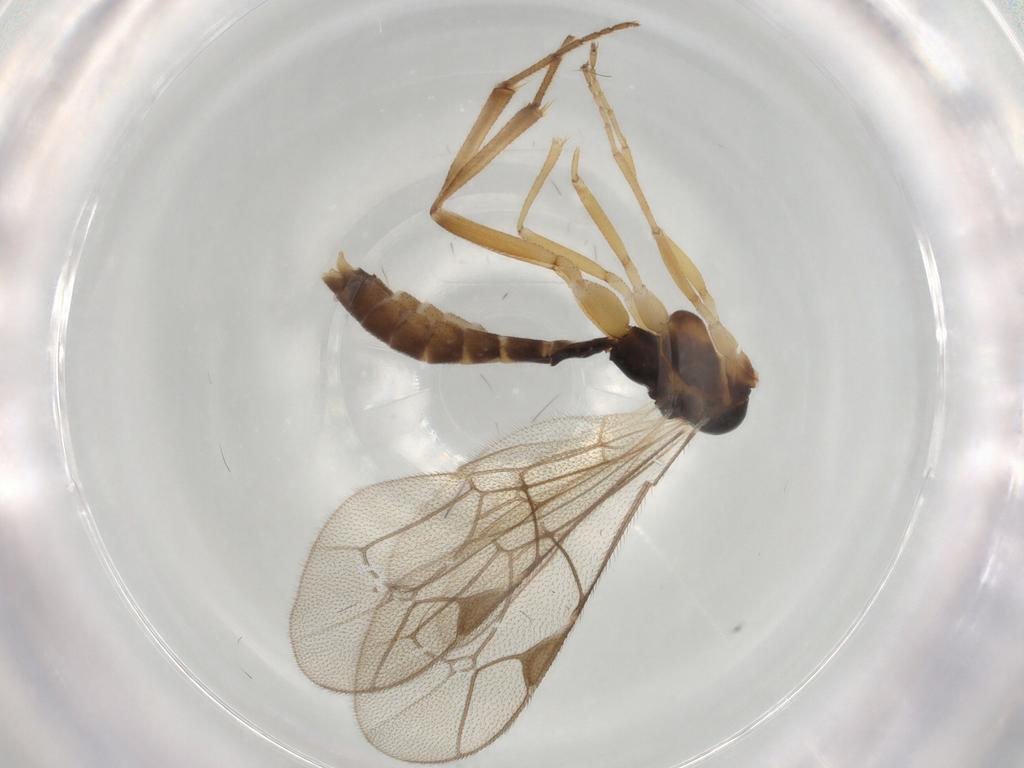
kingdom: Animalia
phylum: Arthropoda
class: Insecta
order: Hymenoptera
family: Ichneumonidae
